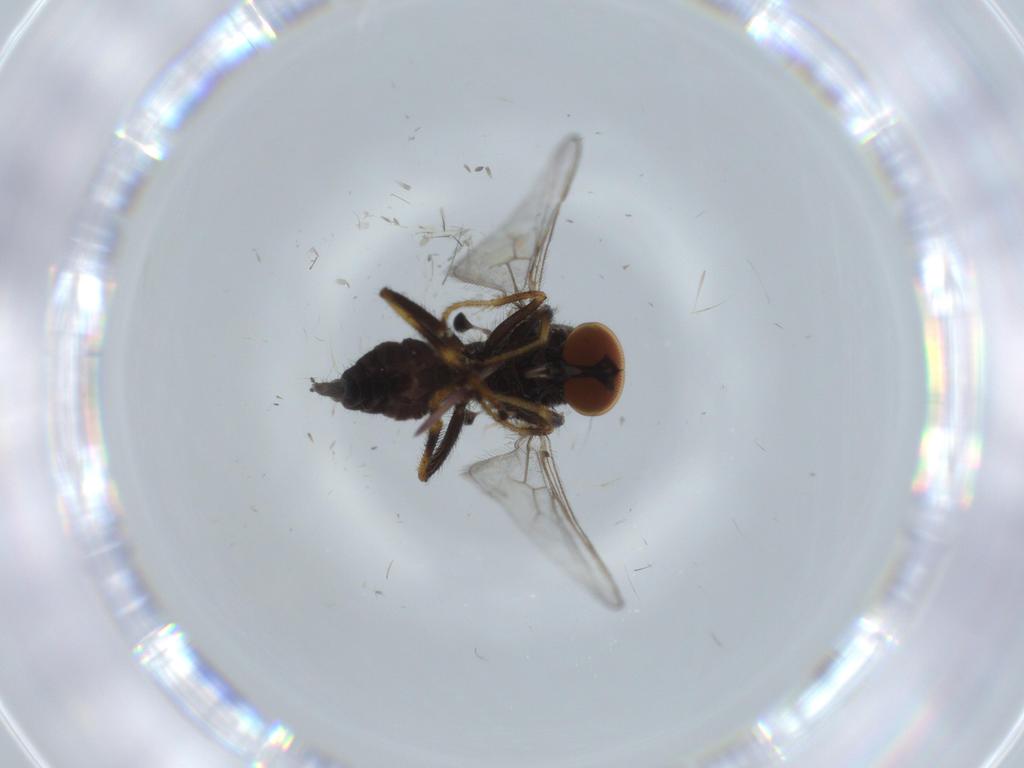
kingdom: Animalia
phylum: Arthropoda
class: Insecta
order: Diptera
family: Hybotidae
